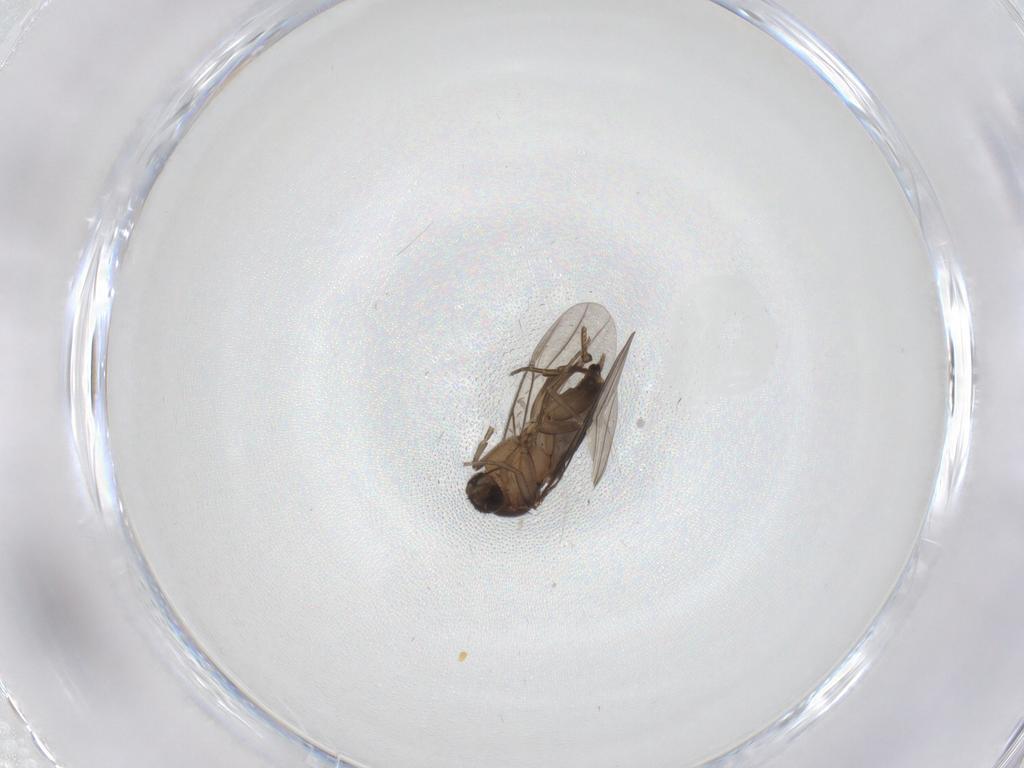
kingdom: Animalia
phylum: Arthropoda
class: Insecta
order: Diptera
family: Phoridae
